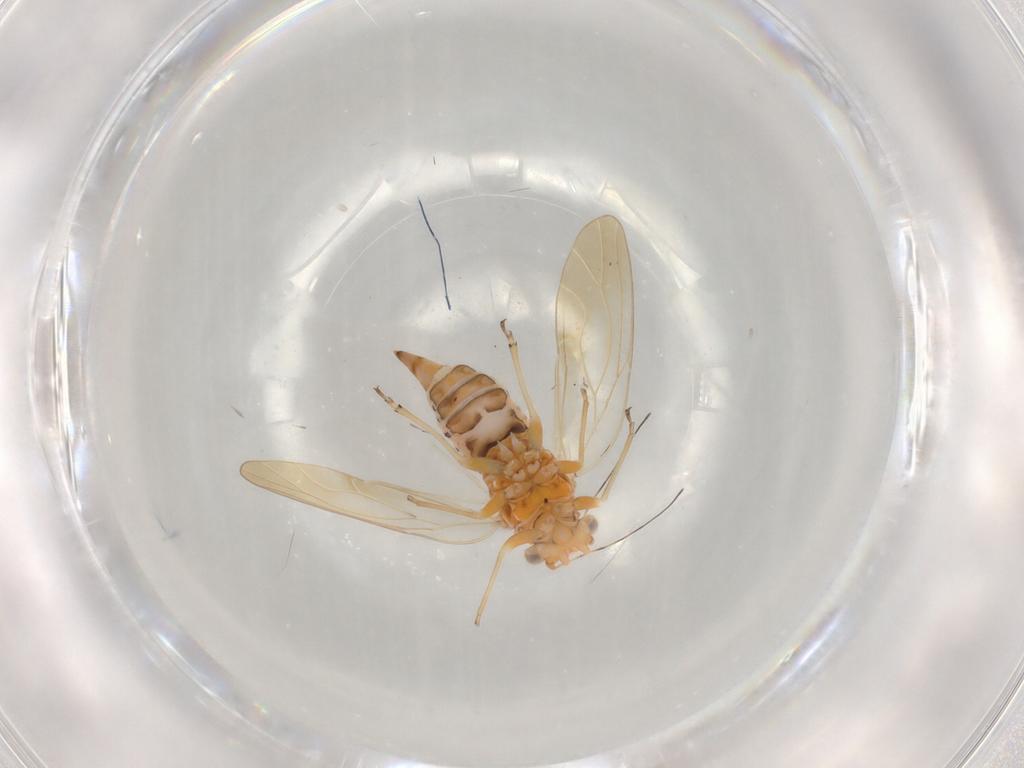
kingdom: Animalia
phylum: Arthropoda
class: Insecta
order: Hemiptera
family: Psyllidae
